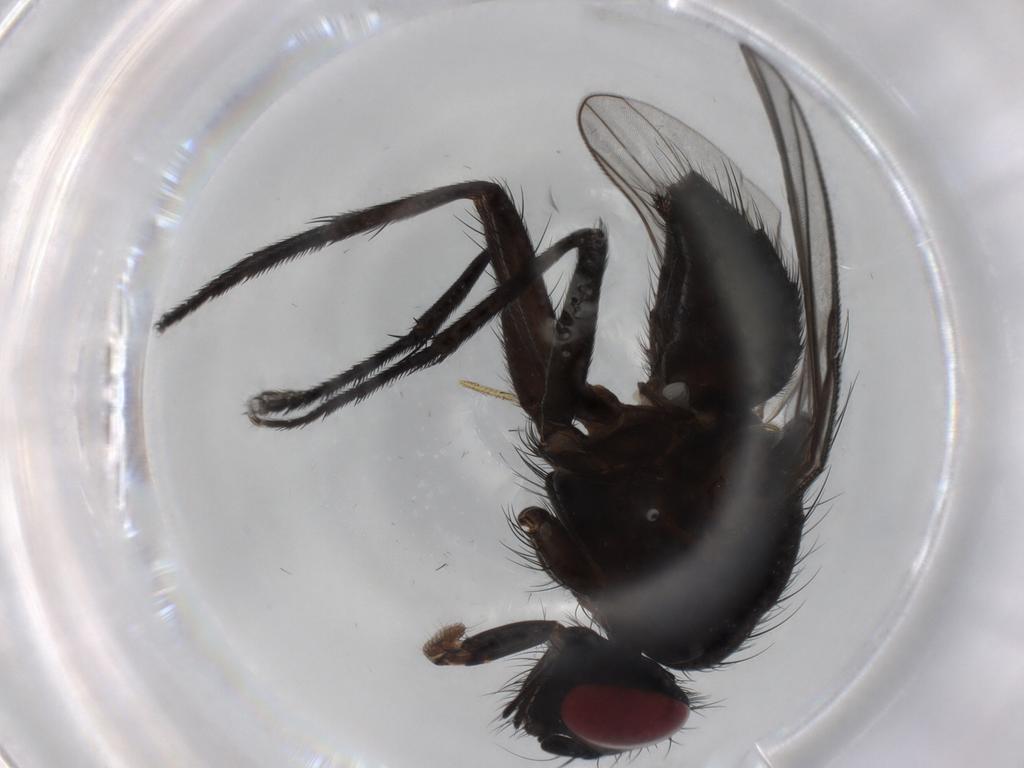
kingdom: Animalia
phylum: Arthropoda
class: Insecta
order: Diptera
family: Muscidae
